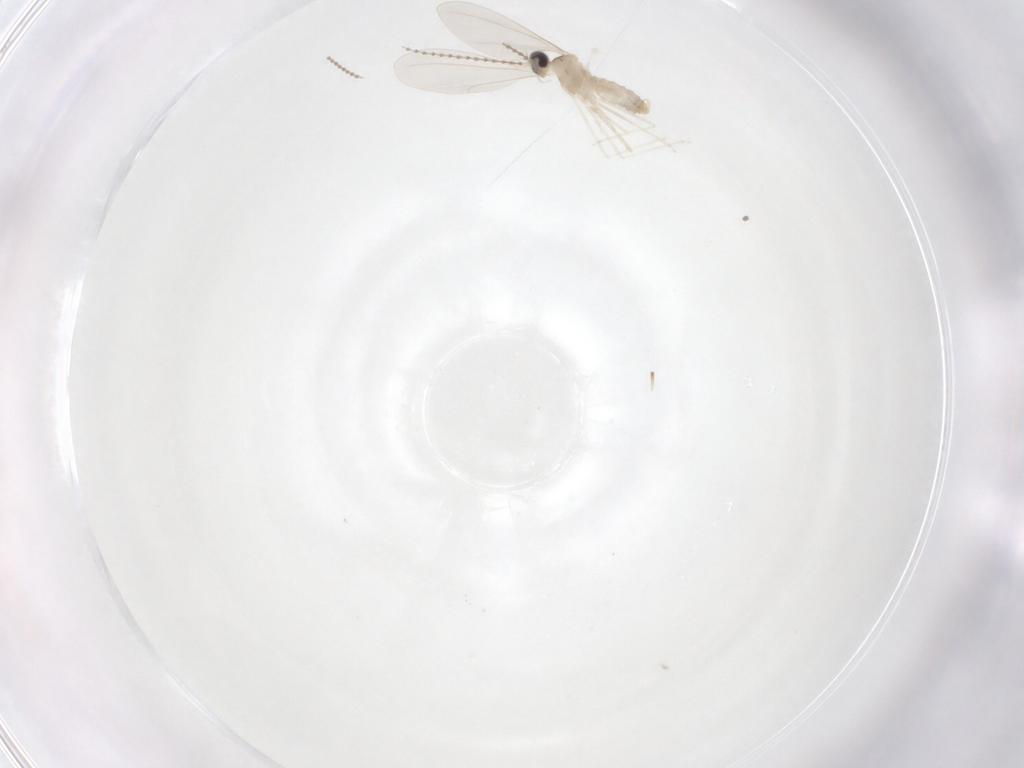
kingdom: Animalia
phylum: Arthropoda
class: Insecta
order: Diptera
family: Cecidomyiidae
